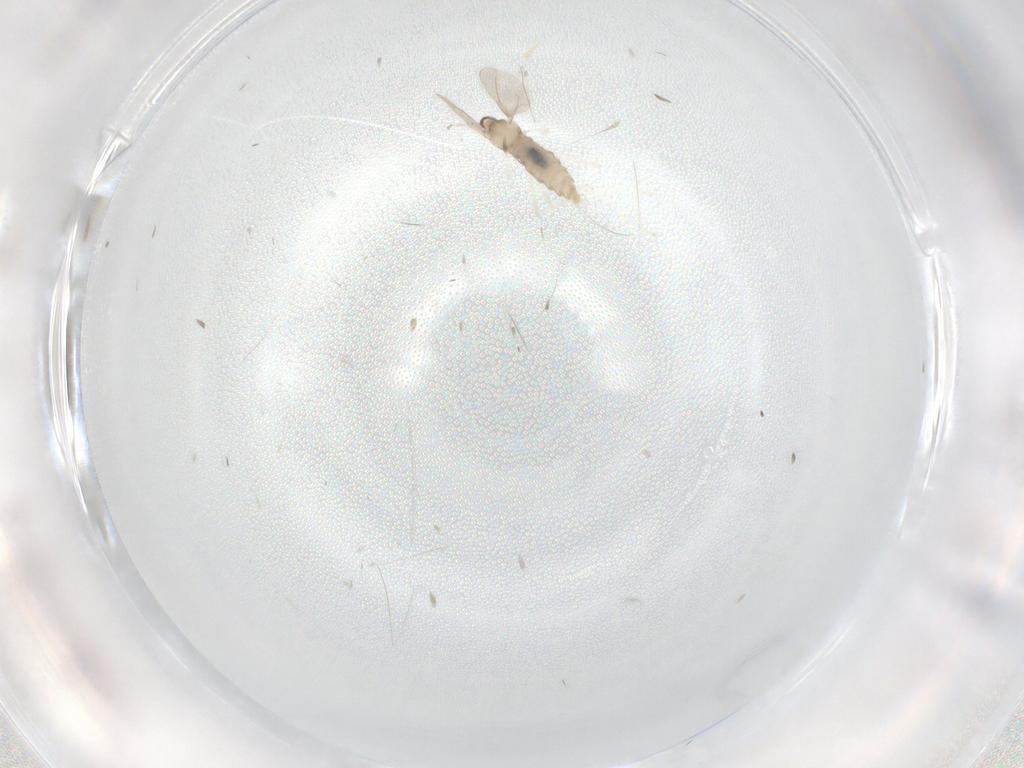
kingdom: Animalia
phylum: Arthropoda
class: Insecta
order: Diptera
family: Cecidomyiidae
